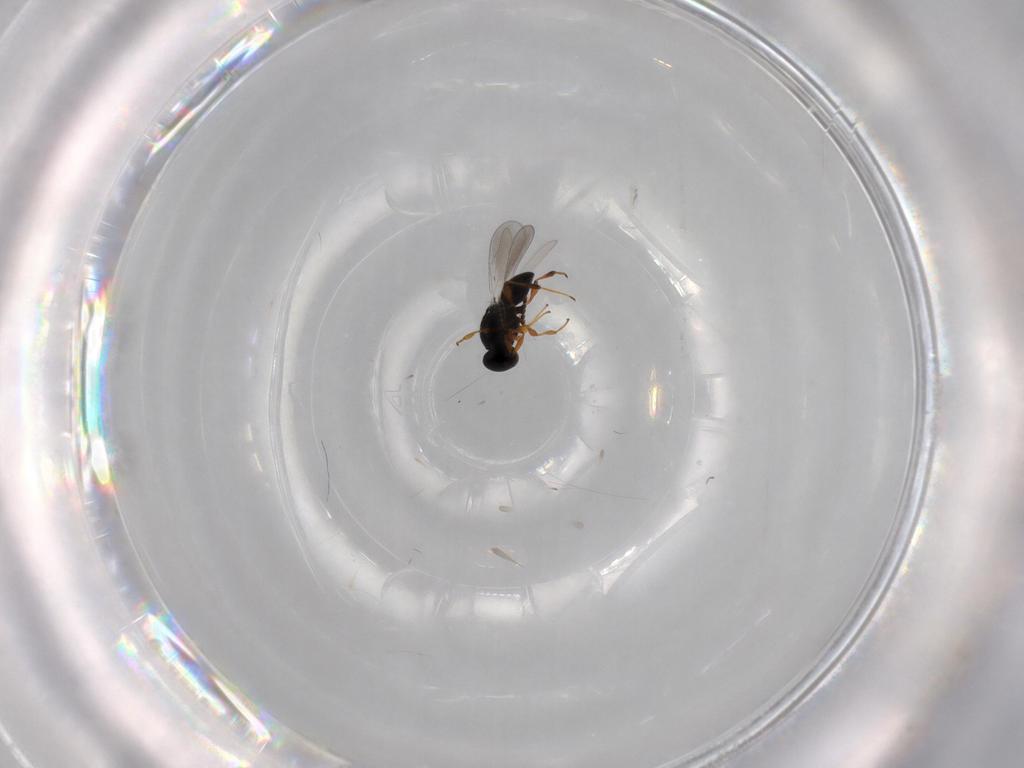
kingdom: Animalia
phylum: Arthropoda
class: Insecta
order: Hymenoptera
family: Platygastridae
